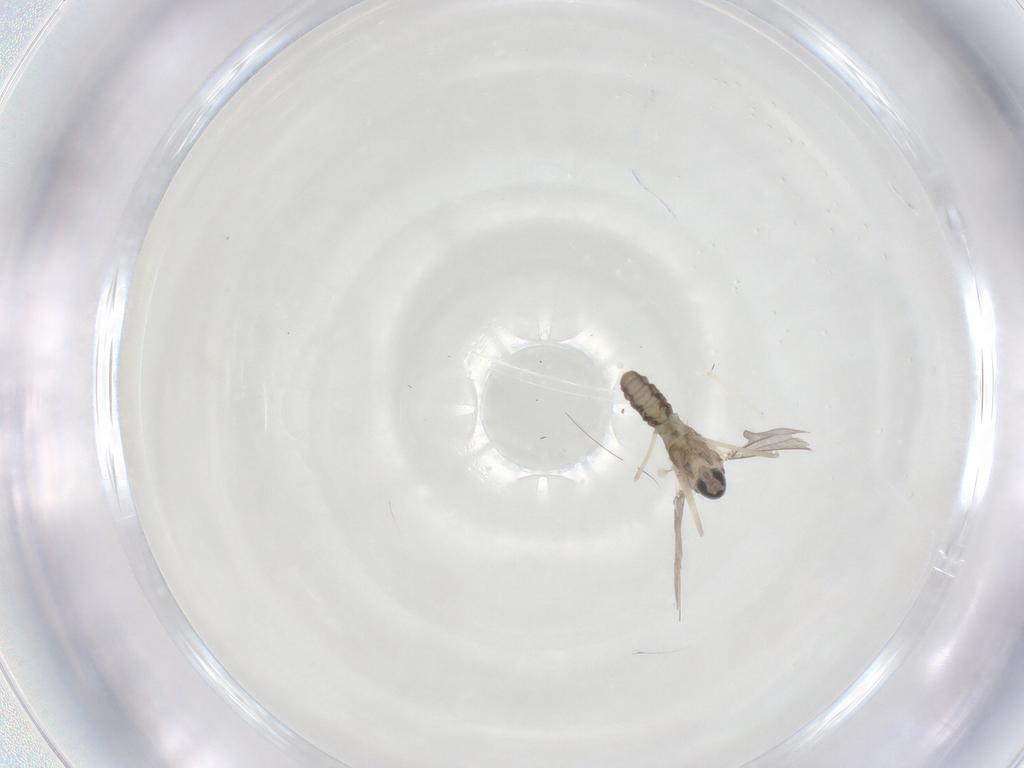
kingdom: Animalia
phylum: Arthropoda
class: Insecta
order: Diptera
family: Cecidomyiidae
